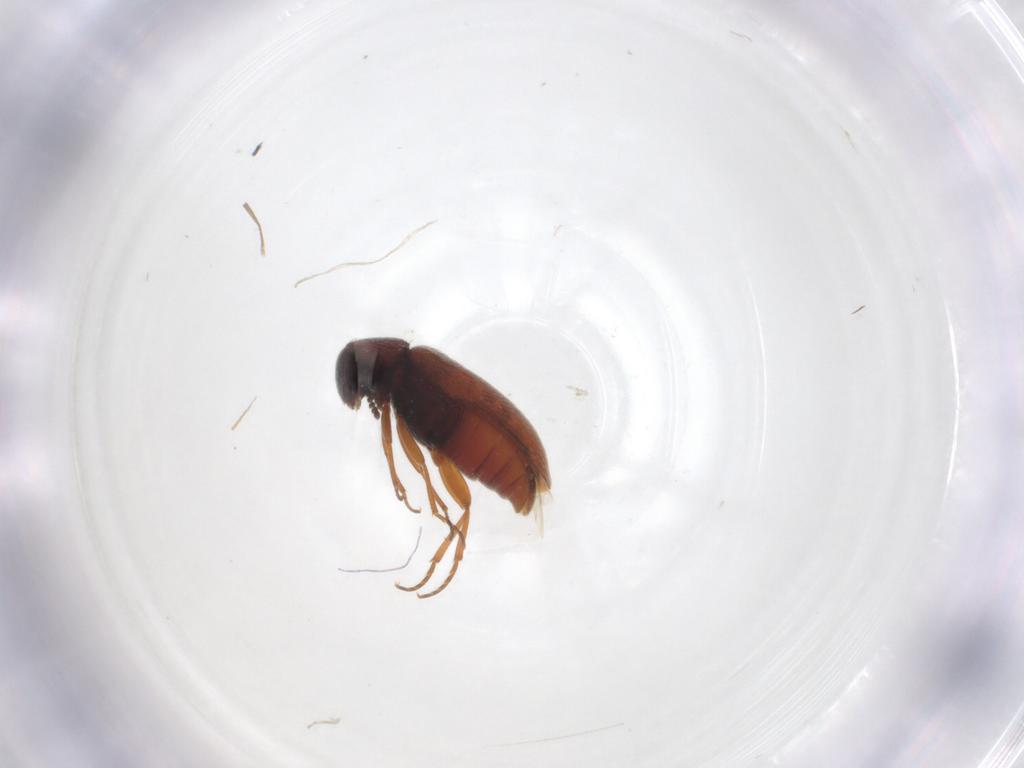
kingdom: Animalia
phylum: Arthropoda
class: Insecta
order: Coleoptera
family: Rhadalidae
